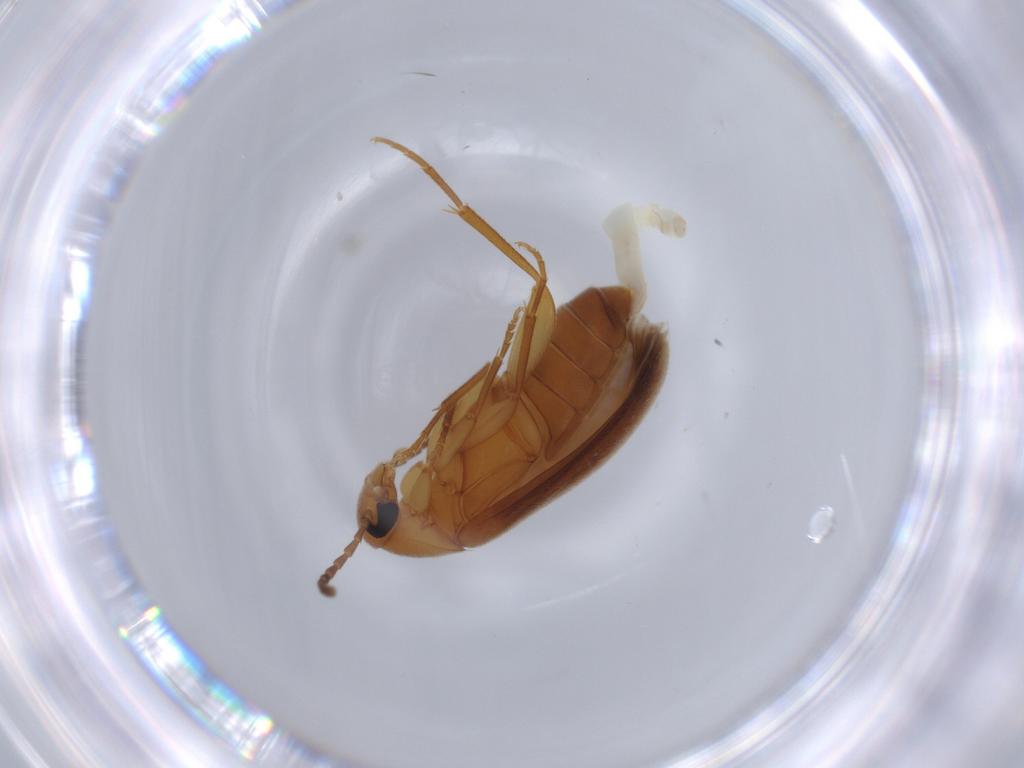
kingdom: Animalia
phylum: Arthropoda
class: Insecta
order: Coleoptera
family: Scraptiidae
